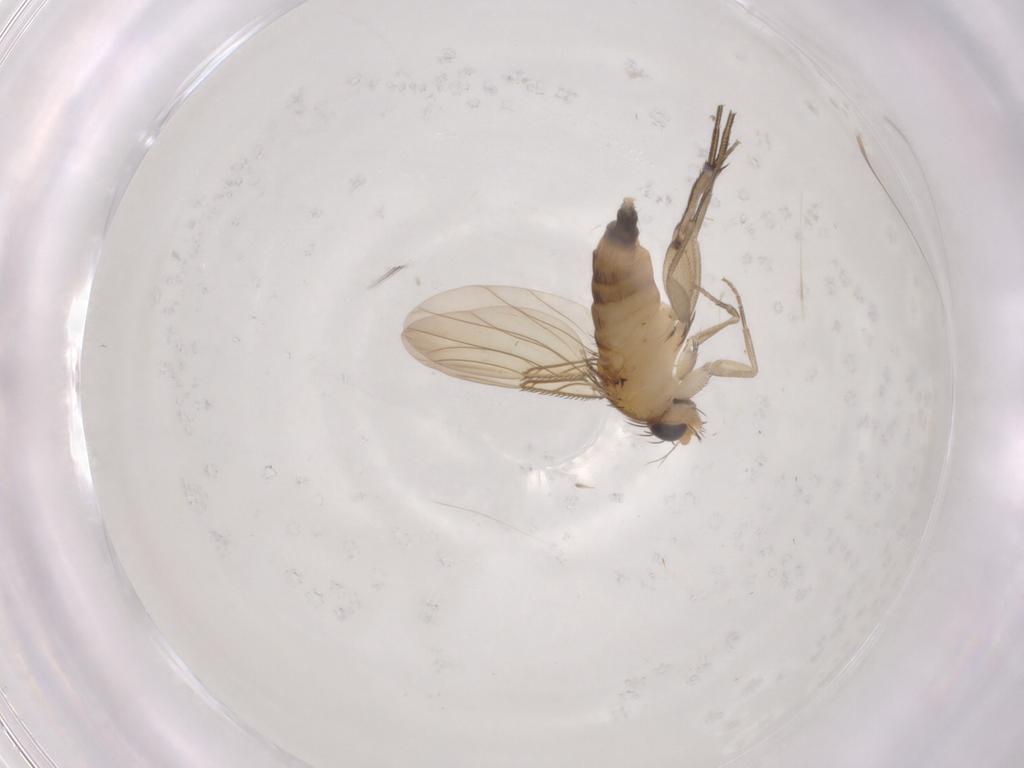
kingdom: Animalia
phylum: Arthropoda
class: Insecta
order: Diptera
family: Phoridae
